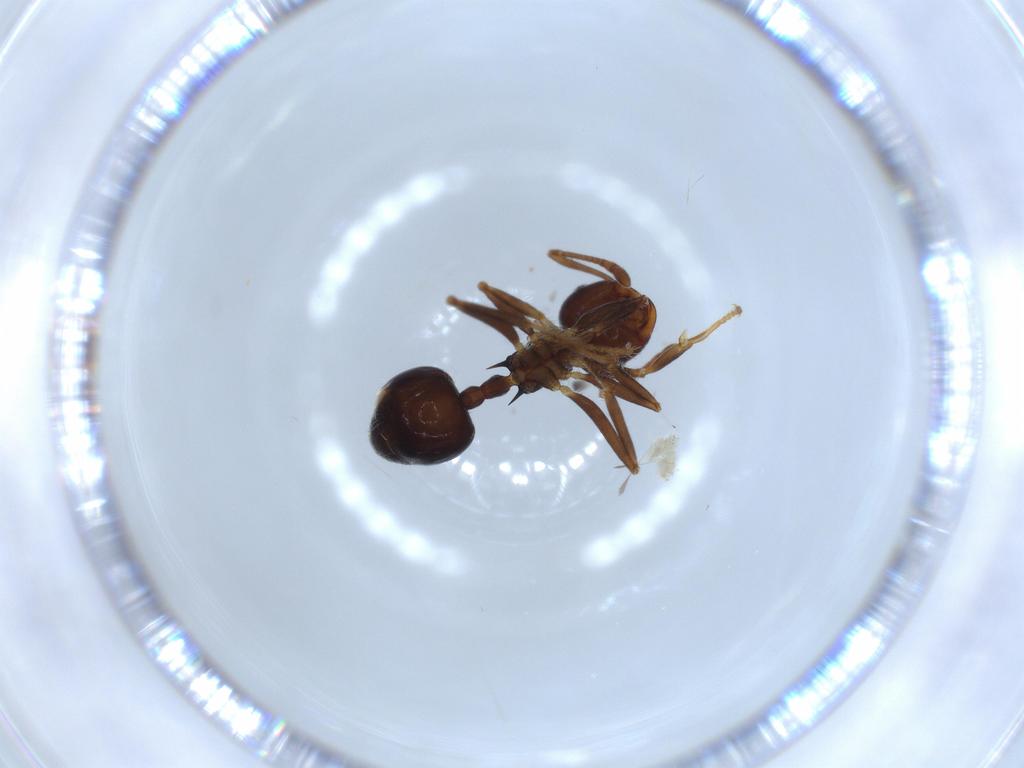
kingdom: Animalia
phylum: Arthropoda
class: Insecta
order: Hymenoptera
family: Formicidae
